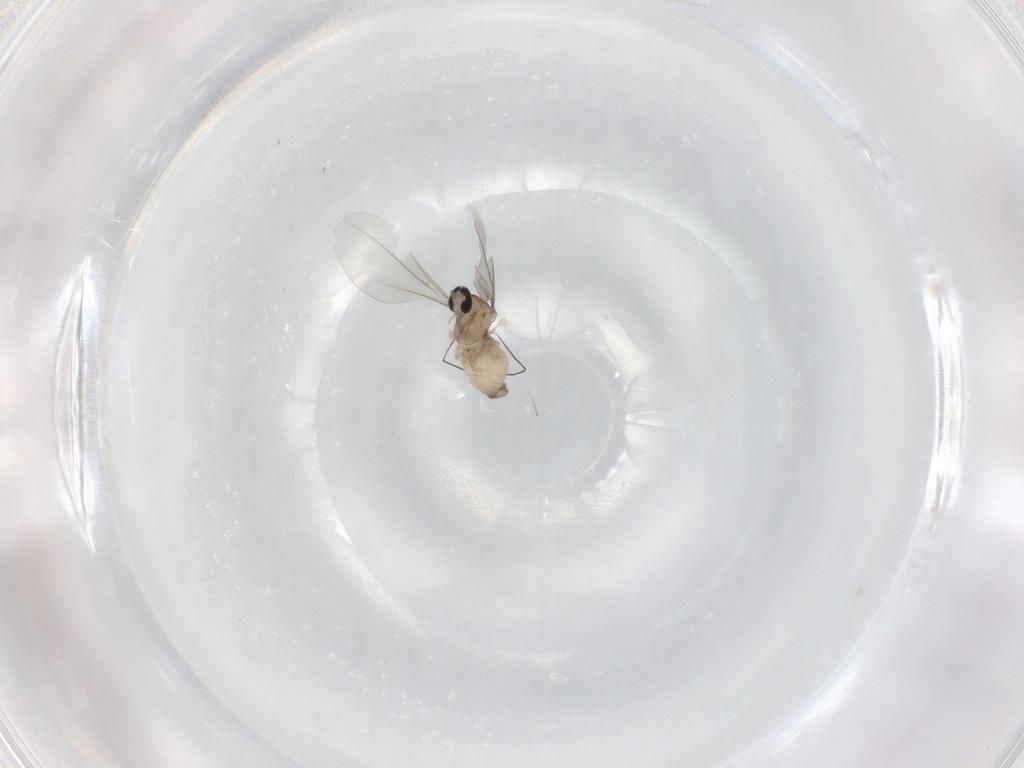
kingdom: Animalia
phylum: Arthropoda
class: Insecta
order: Diptera
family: Cecidomyiidae
